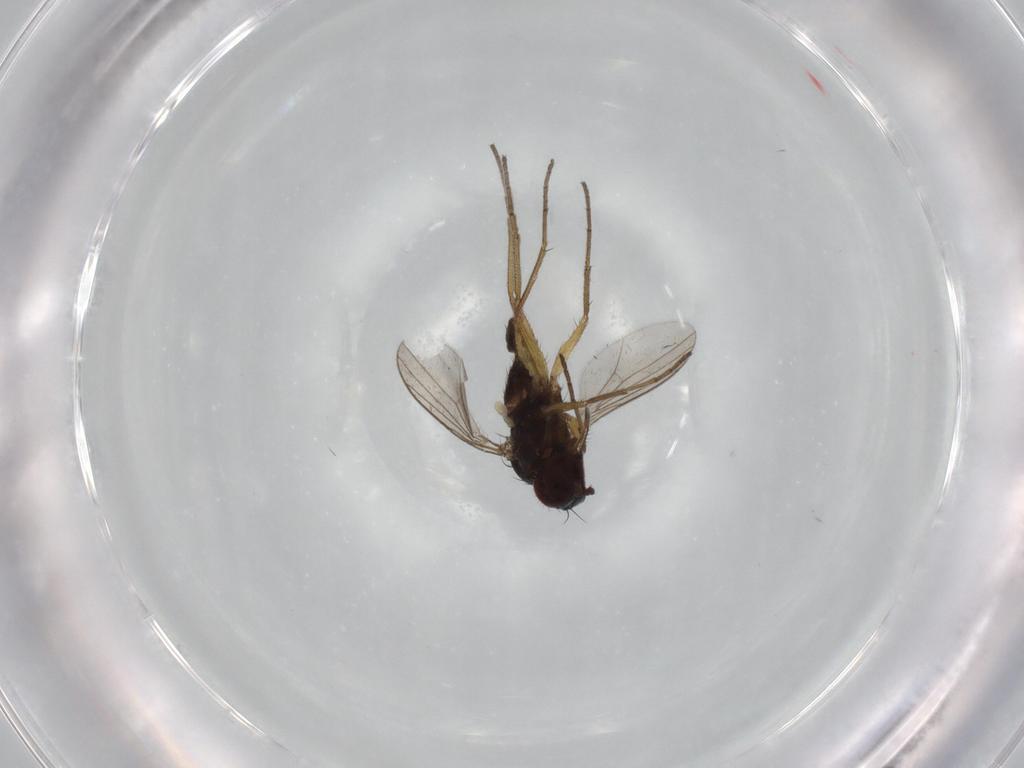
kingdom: Animalia
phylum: Arthropoda
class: Insecta
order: Diptera
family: Dolichopodidae
